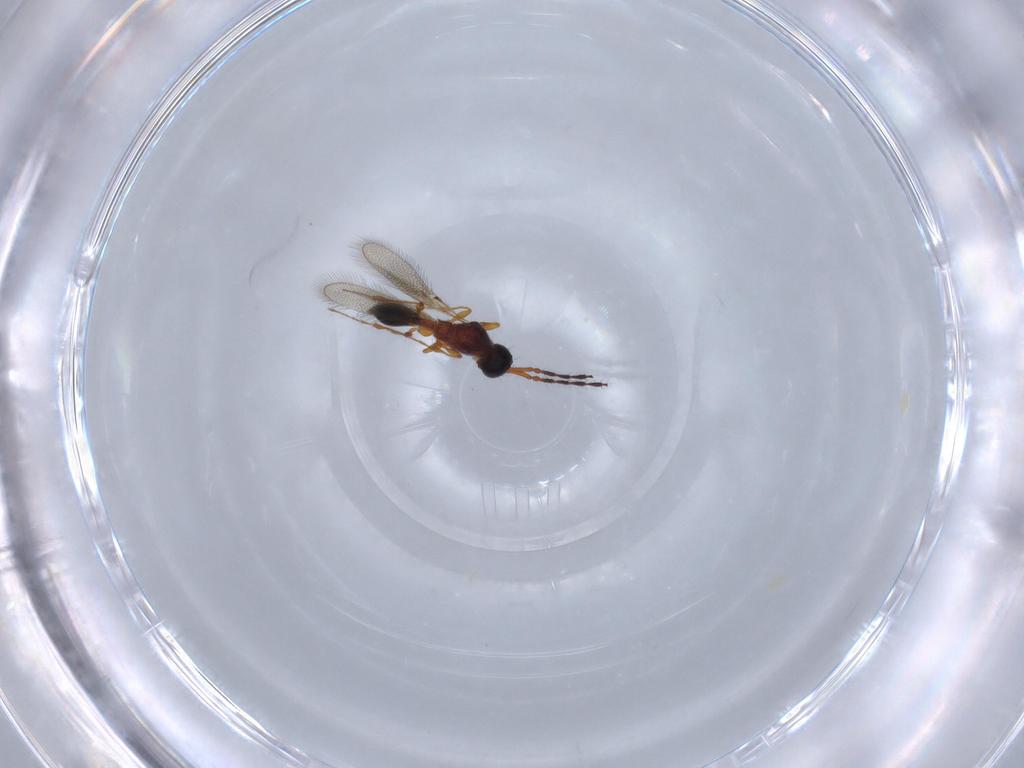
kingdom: Animalia
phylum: Arthropoda
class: Insecta
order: Hymenoptera
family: Diapriidae
